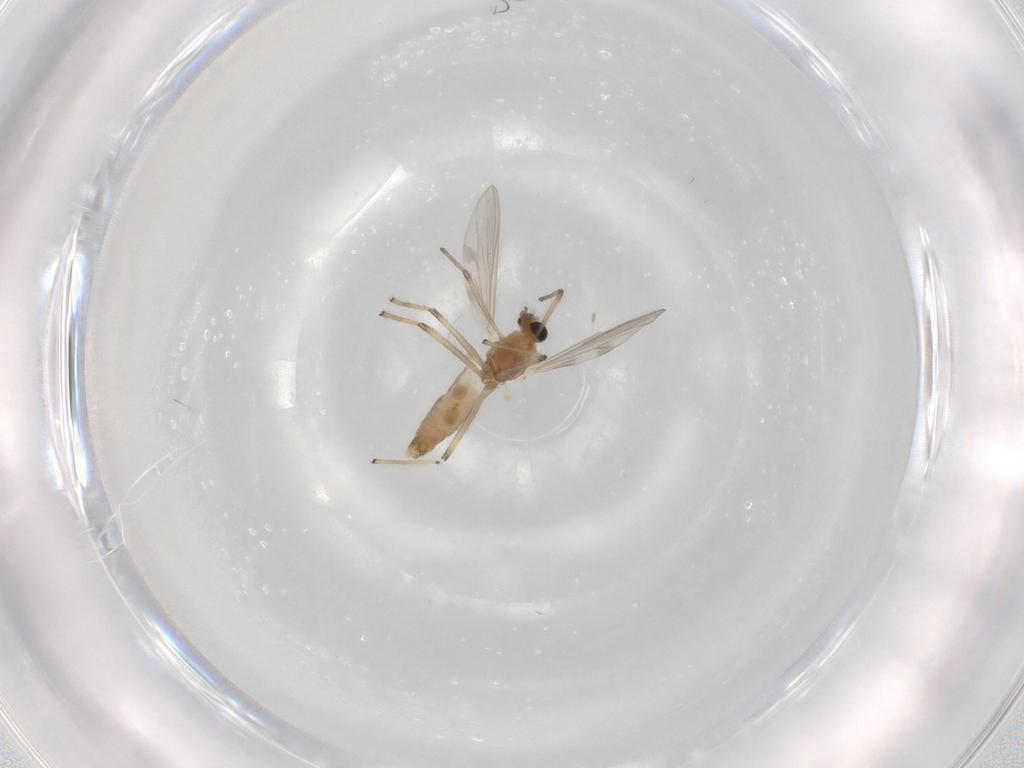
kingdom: Animalia
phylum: Arthropoda
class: Insecta
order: Diptera
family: Chironomidae
